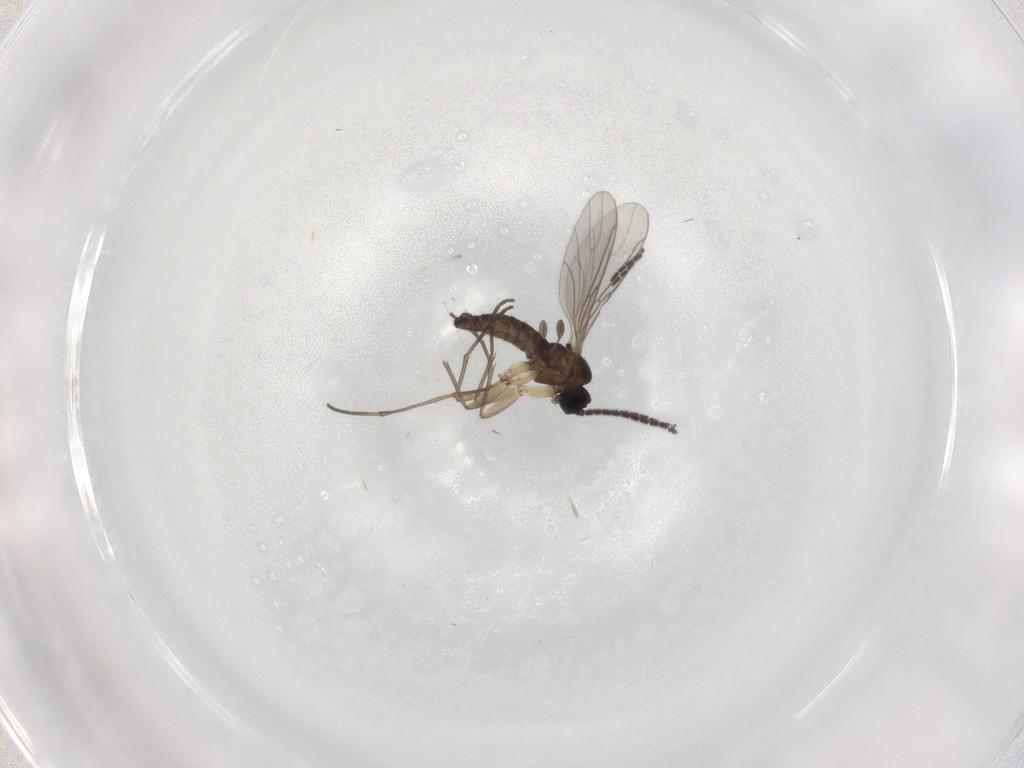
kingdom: Animalia
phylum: Arthropoda
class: Insecta
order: Diptera
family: Sciaridae
